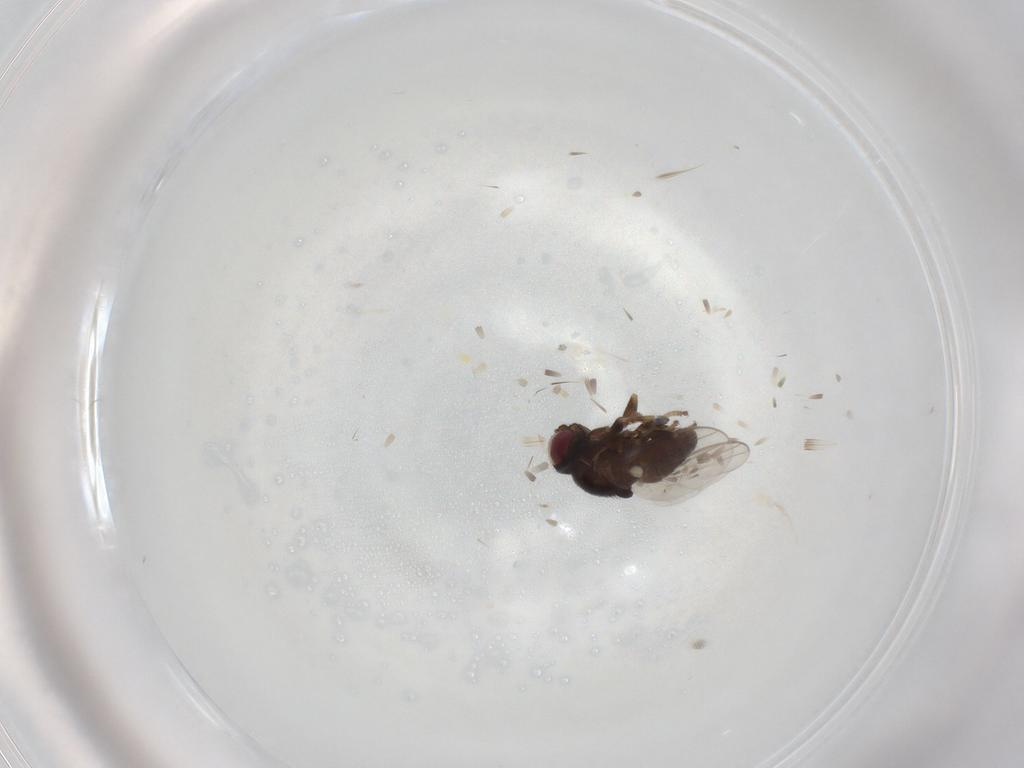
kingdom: Animalia
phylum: Arthropoda
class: Insecta
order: Diptera
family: Chloropidae
